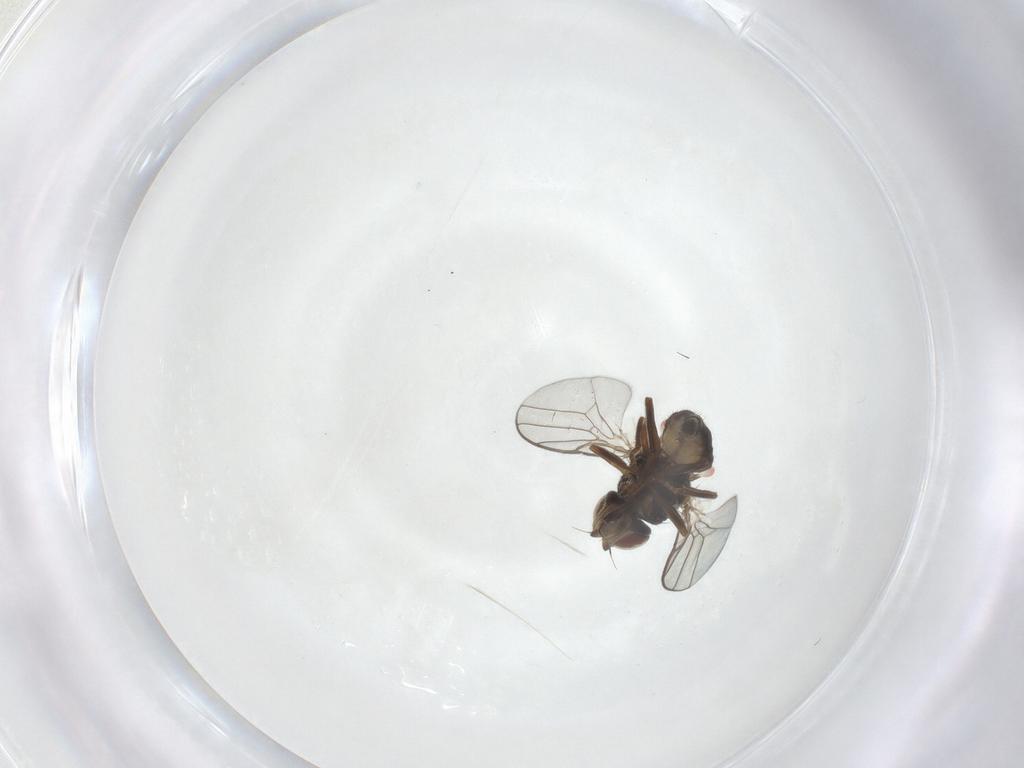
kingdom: Animalia
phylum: Arthropoda
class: Insecta
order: Diptera
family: Chloropidae
